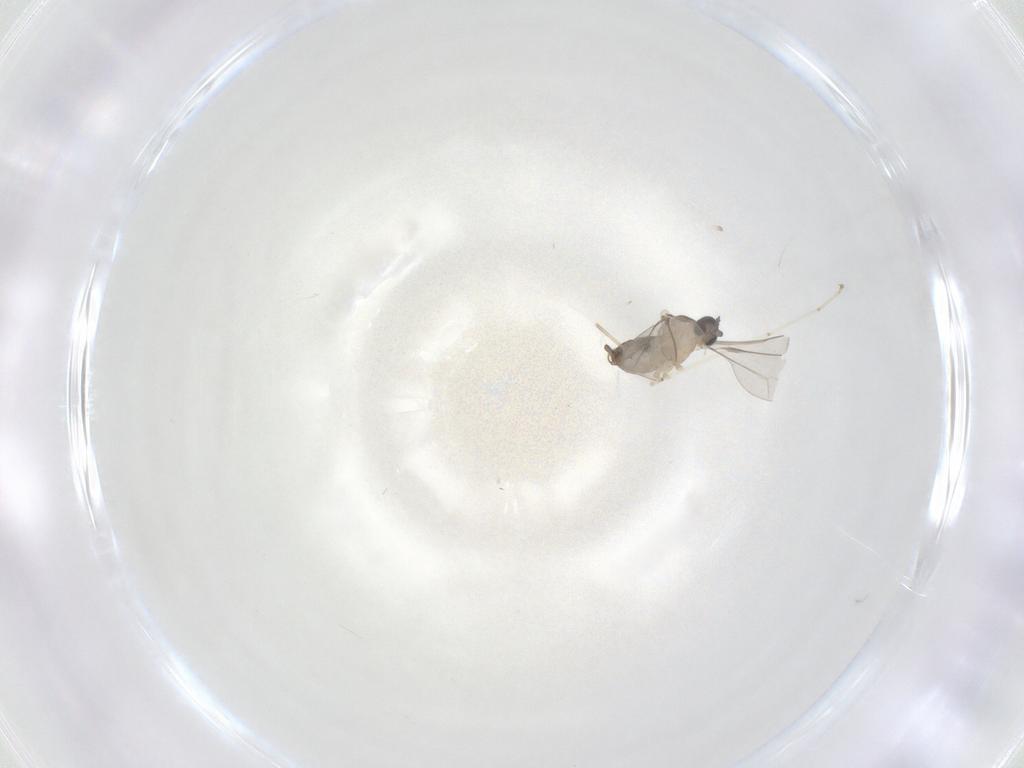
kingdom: Animalia
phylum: Arthropoda
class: Insecta
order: Diptera
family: Cecidomyiidae
